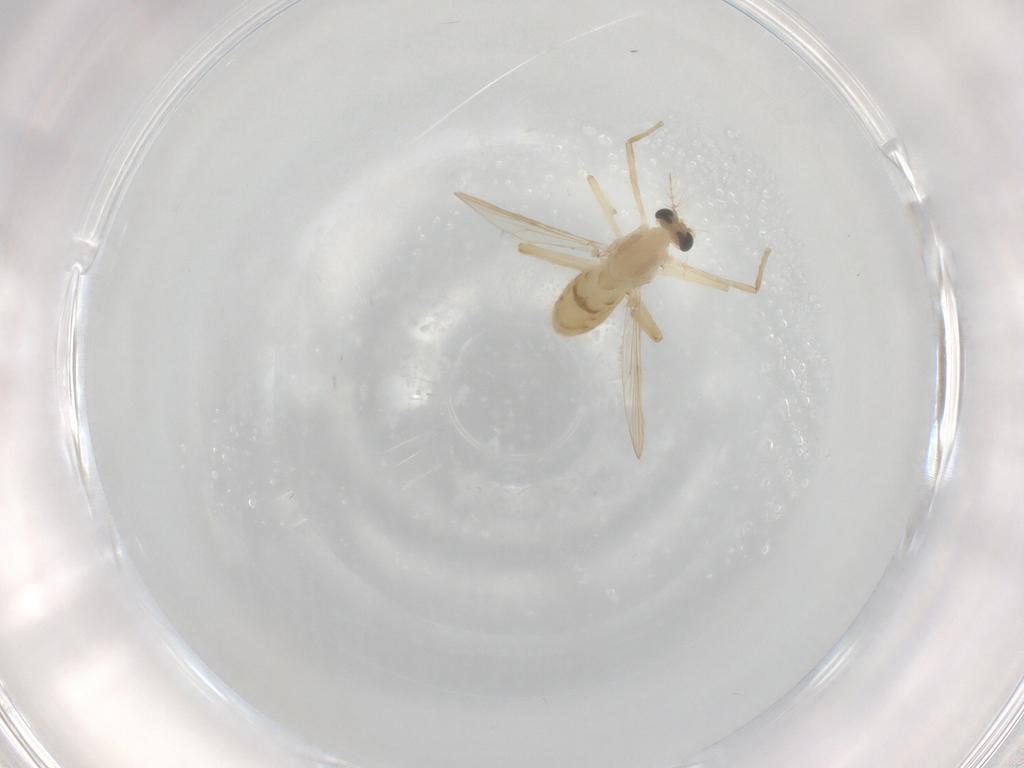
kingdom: Animalia
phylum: Arthropoda
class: Insecta
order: Diptera
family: Chironomidae
